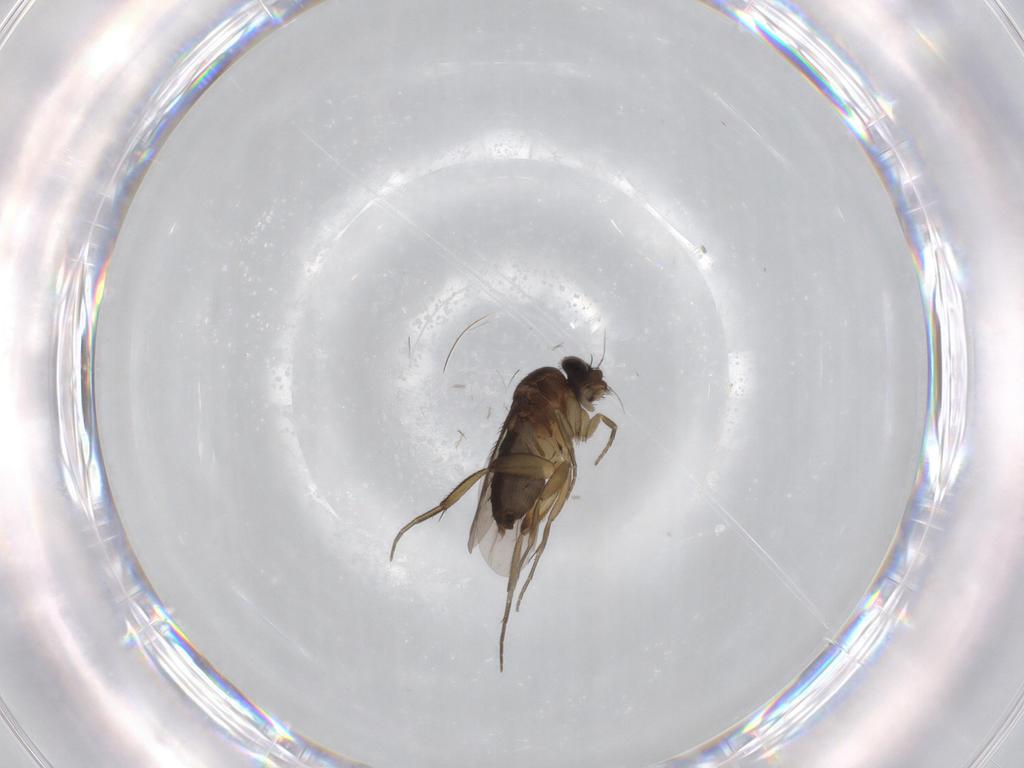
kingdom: Animalia
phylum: Arthropoda
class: Insecta
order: Diptera
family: Phoridae
